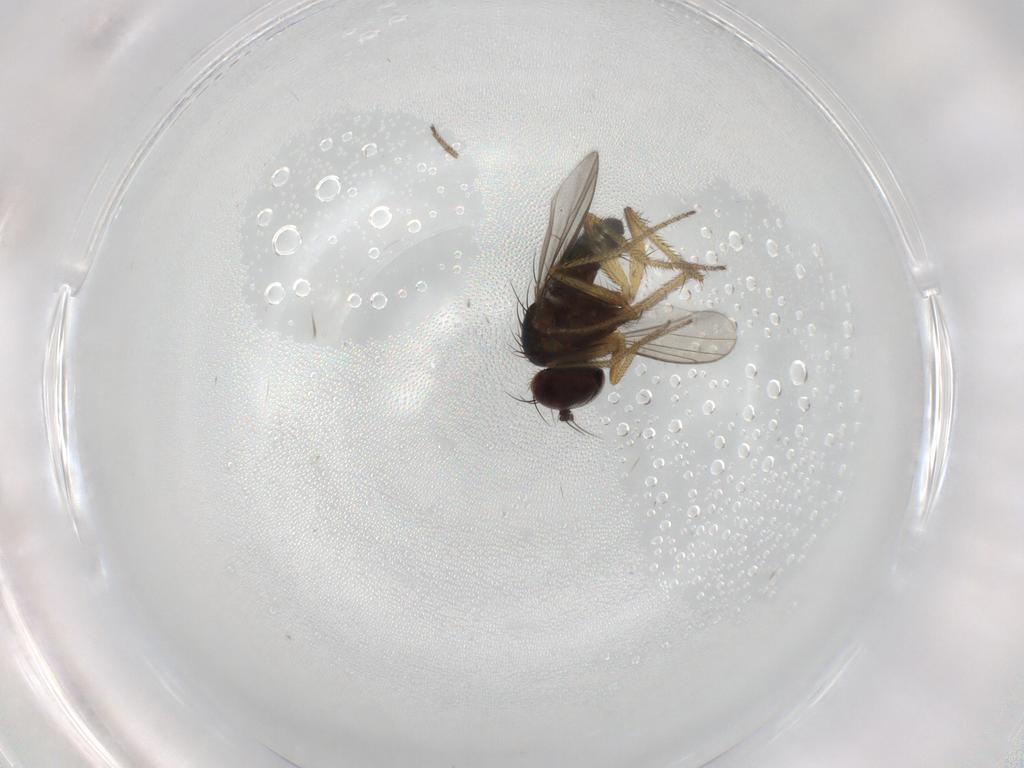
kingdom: Animalia
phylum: Arthropoda
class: Insecta
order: Diptera
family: Dolichopodidae
